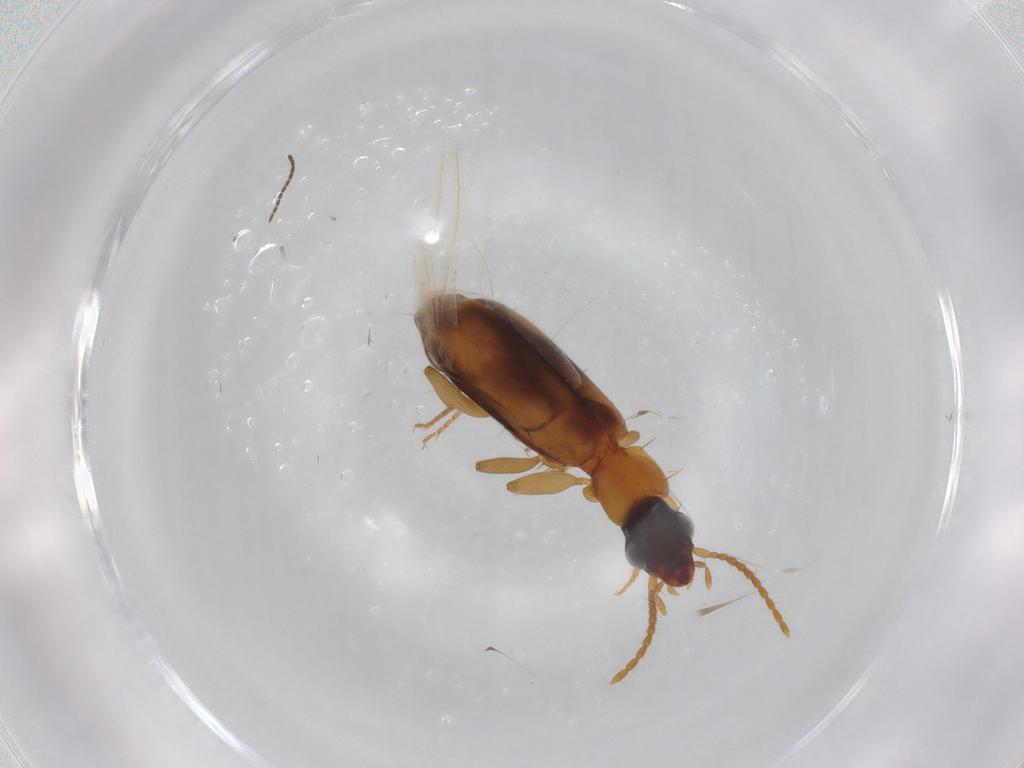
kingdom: Animalia
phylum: Arthropoda
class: Insecta
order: Coleoptera
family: Carabidae
